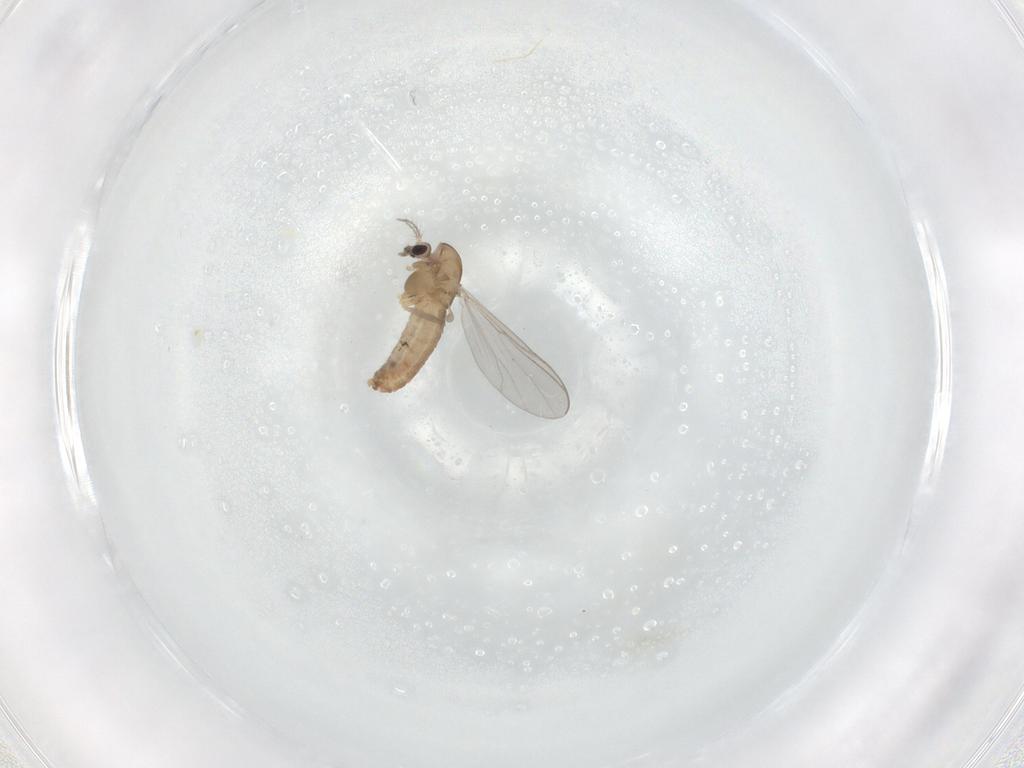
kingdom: Animalia
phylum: Arthropoda
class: Insecta
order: Diptera
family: Chironomidae
